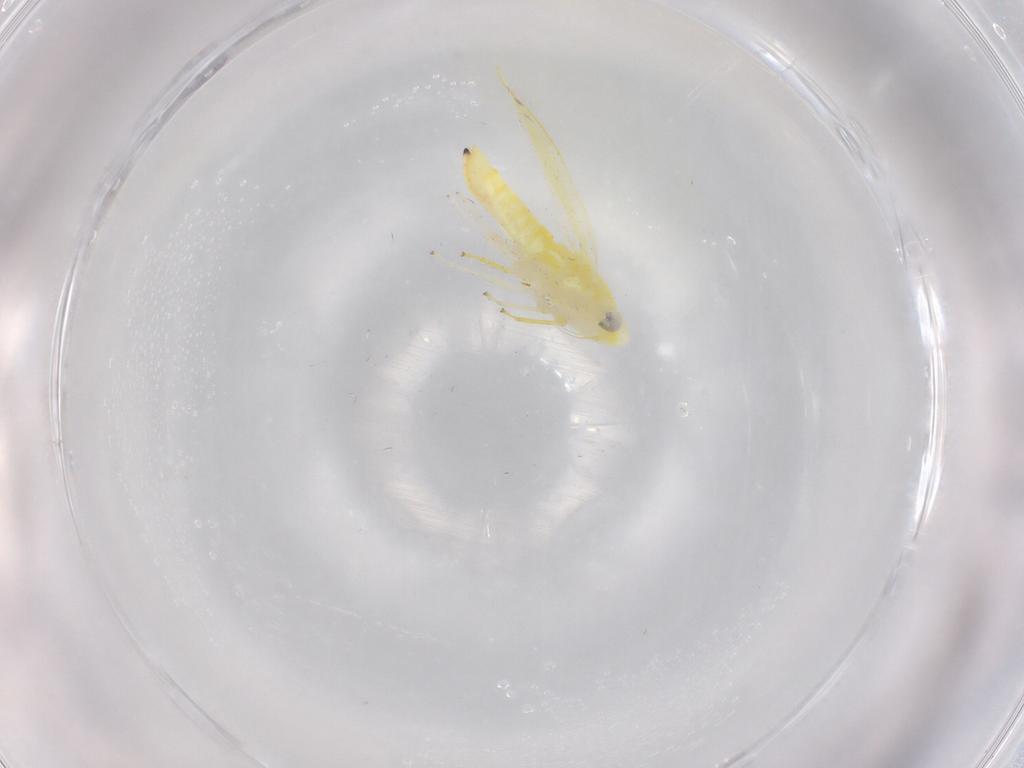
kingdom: Animalia
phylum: Arthropoda
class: Insecta
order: Hemiptera
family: Cicadellidae
